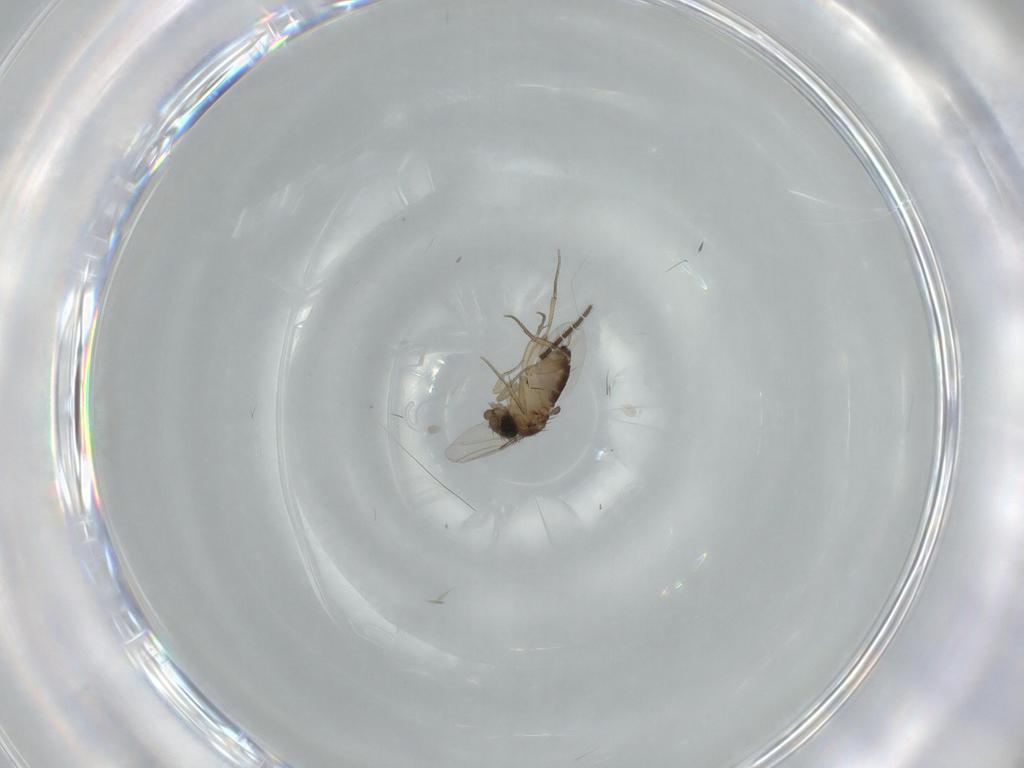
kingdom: Animalia
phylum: Arthropoda
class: Insecta
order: Diptera
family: Sciaridae
